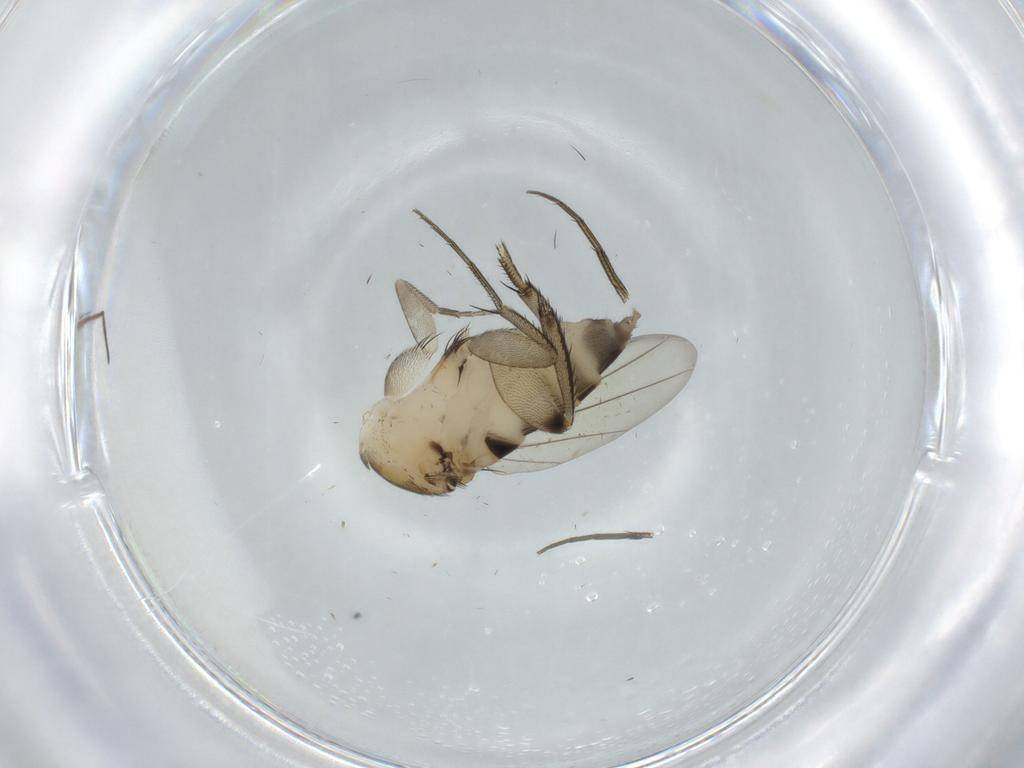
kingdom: Animalia
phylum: Arthropoda
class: Insecta
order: Diptera
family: Phoridae
